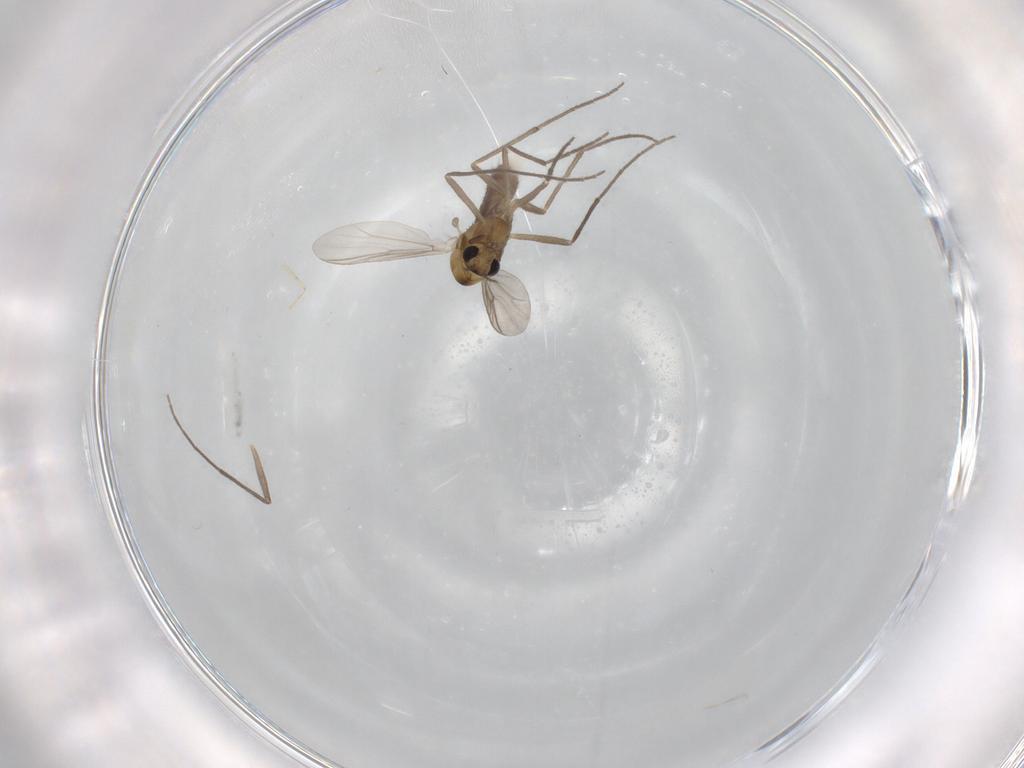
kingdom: Animalia
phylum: Arthropoda
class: Insecta
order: Diptera
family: Chironomidae
